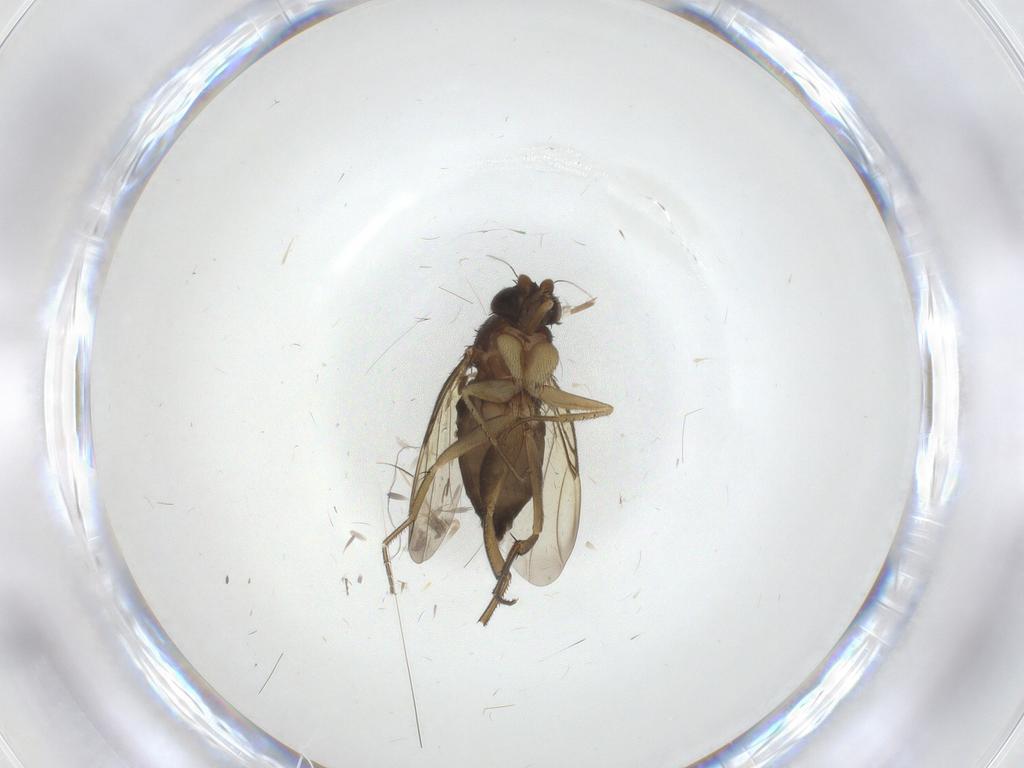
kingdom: Animalia
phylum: Arthropoda
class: Insecta
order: Diptera
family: Phoridae
